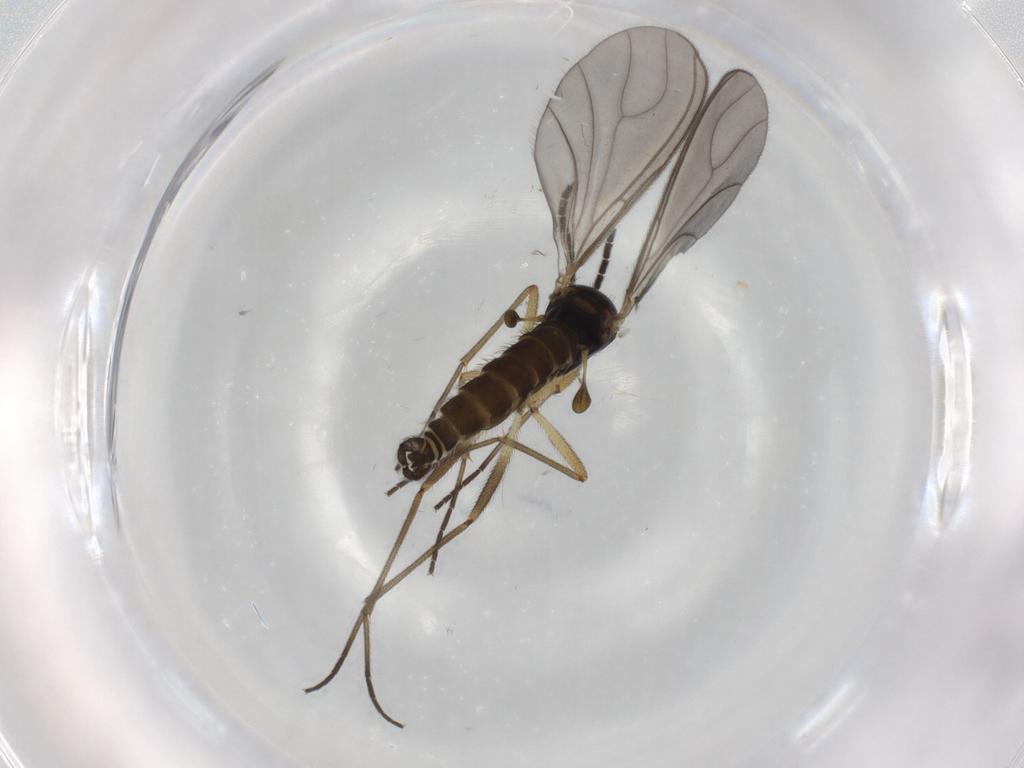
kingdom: Animalia
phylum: Arthropoda
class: Insecta
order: Diptera
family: Sciaridae
